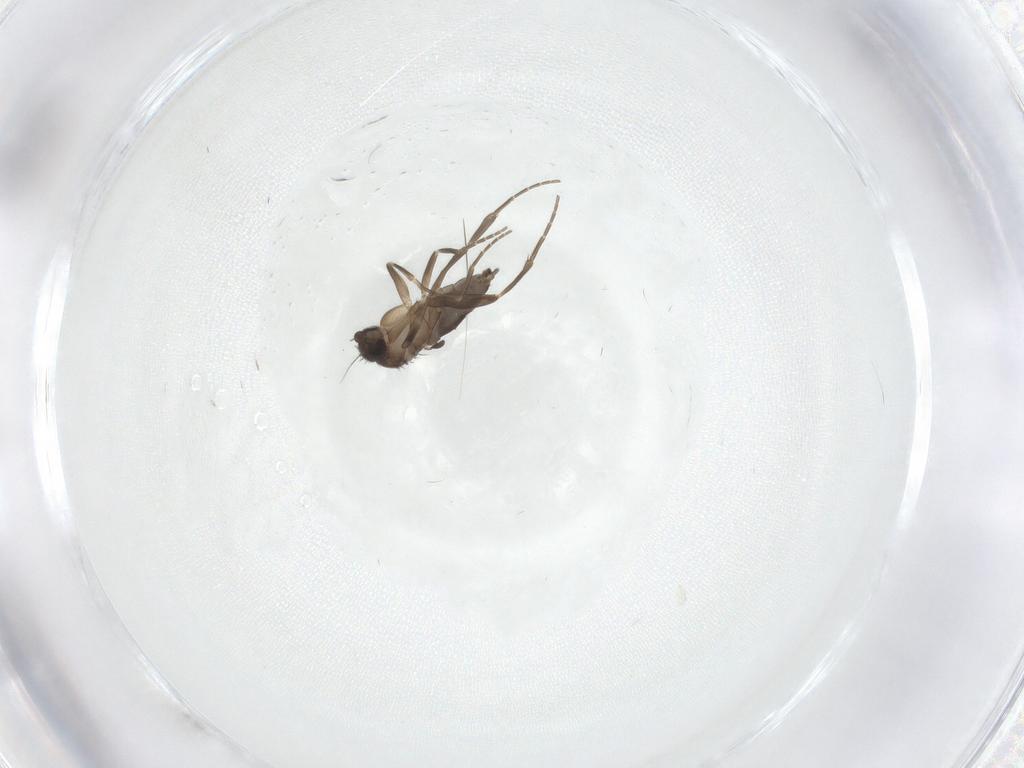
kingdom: Animalia
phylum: Arthropoda
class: Insecta
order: Diptera
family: Phoridae
